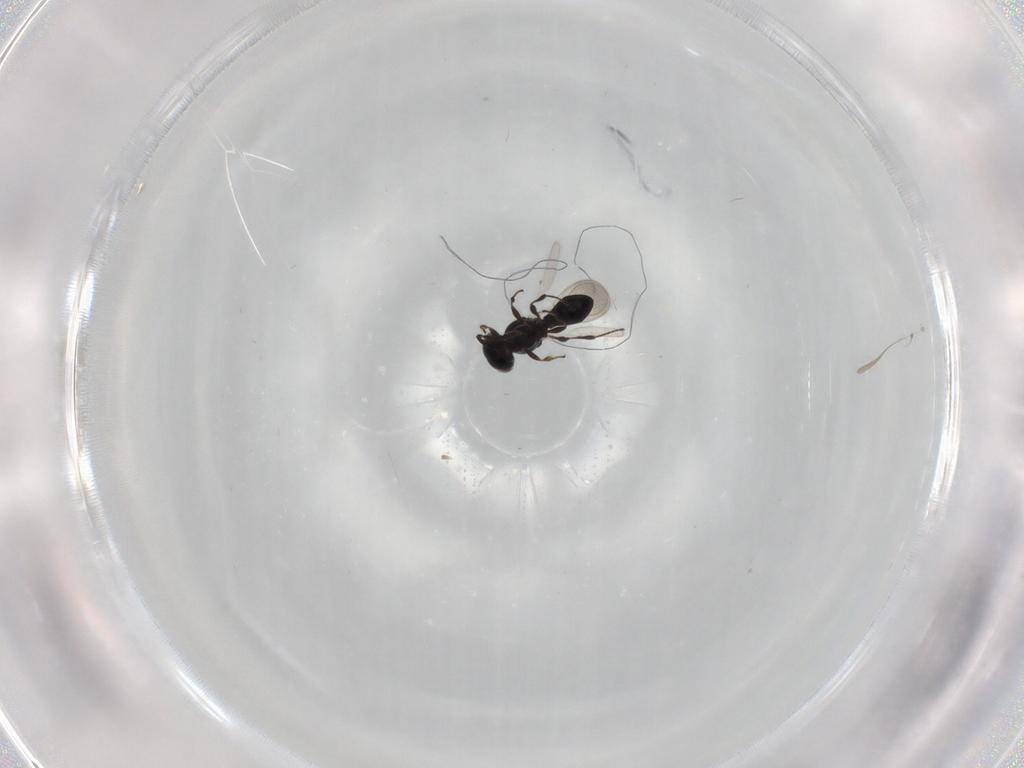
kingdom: Animalia
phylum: Arthropoda
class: Insecta
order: Hymenoptera
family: Platygastridae
